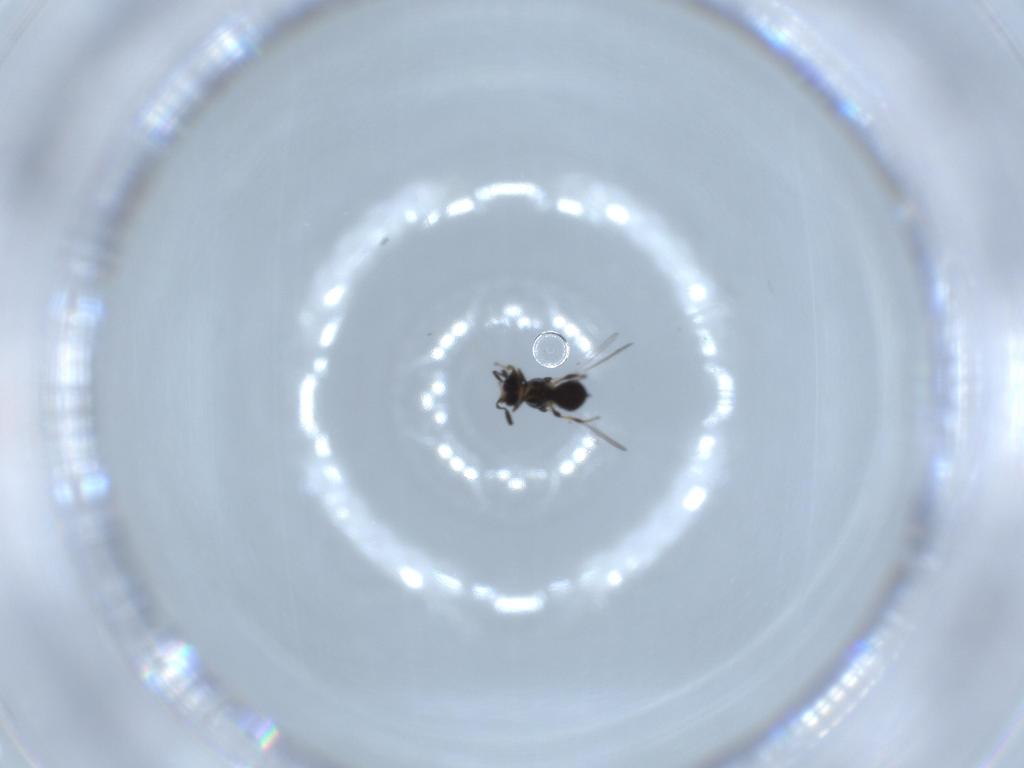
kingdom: Animalia
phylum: Arthropoda
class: Insecta
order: Hymenoptera
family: Platygastridae
